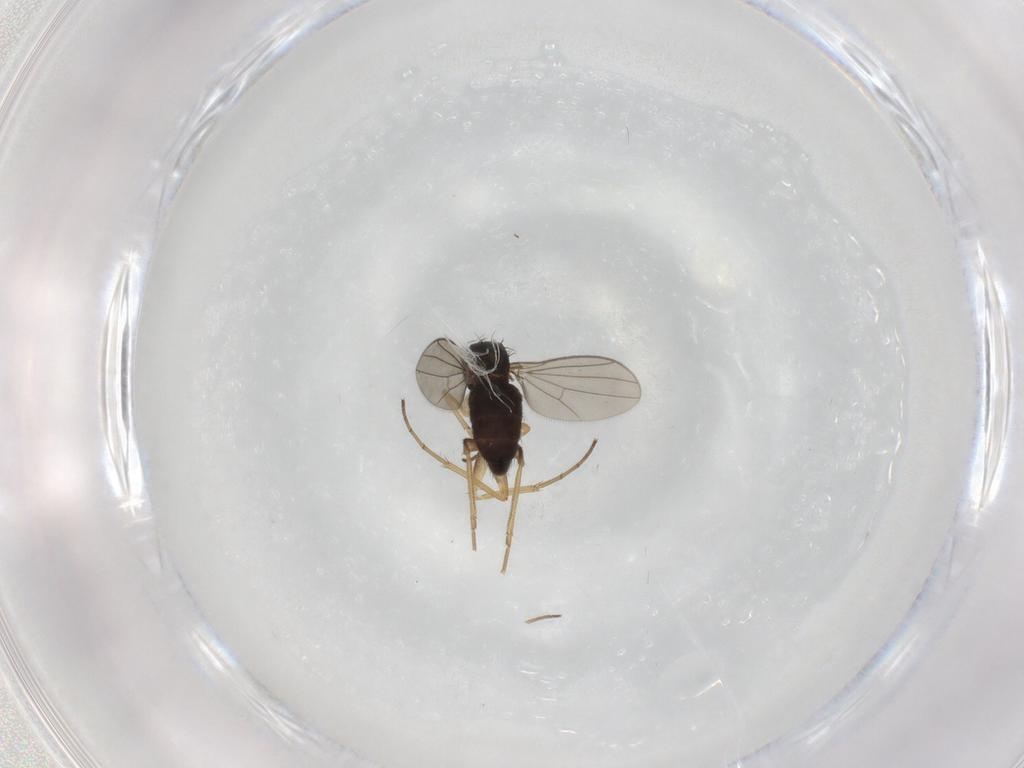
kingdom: Animalia
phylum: Arthropoda
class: Insecta
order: Diptera
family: Dolichopodidae
